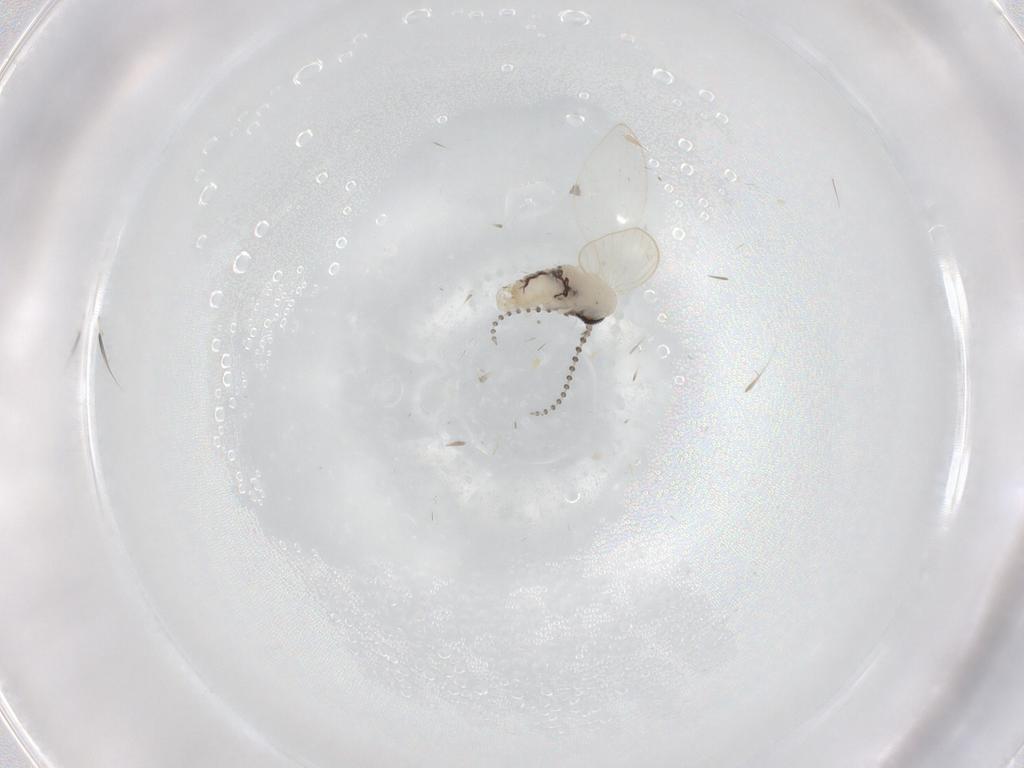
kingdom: Animalia
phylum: Arthropoda
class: Insecta
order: Diptera
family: Psychodidae
